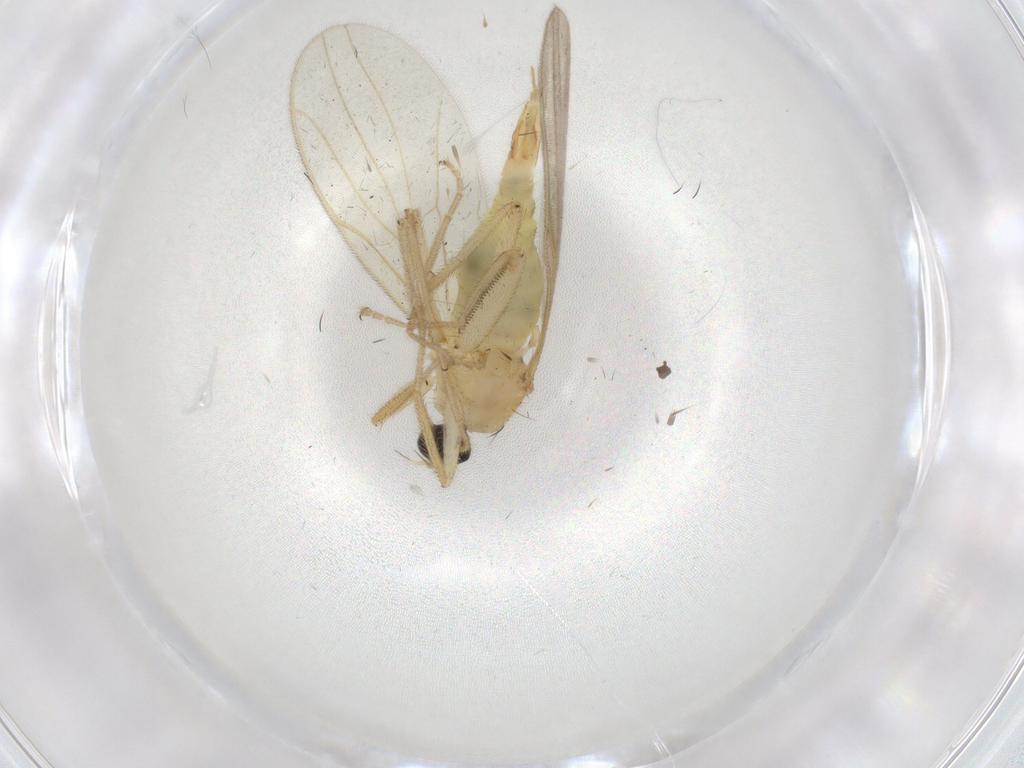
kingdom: Animalia
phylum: Arthropoda
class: Insecta
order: Diptera
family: Hybotidae
